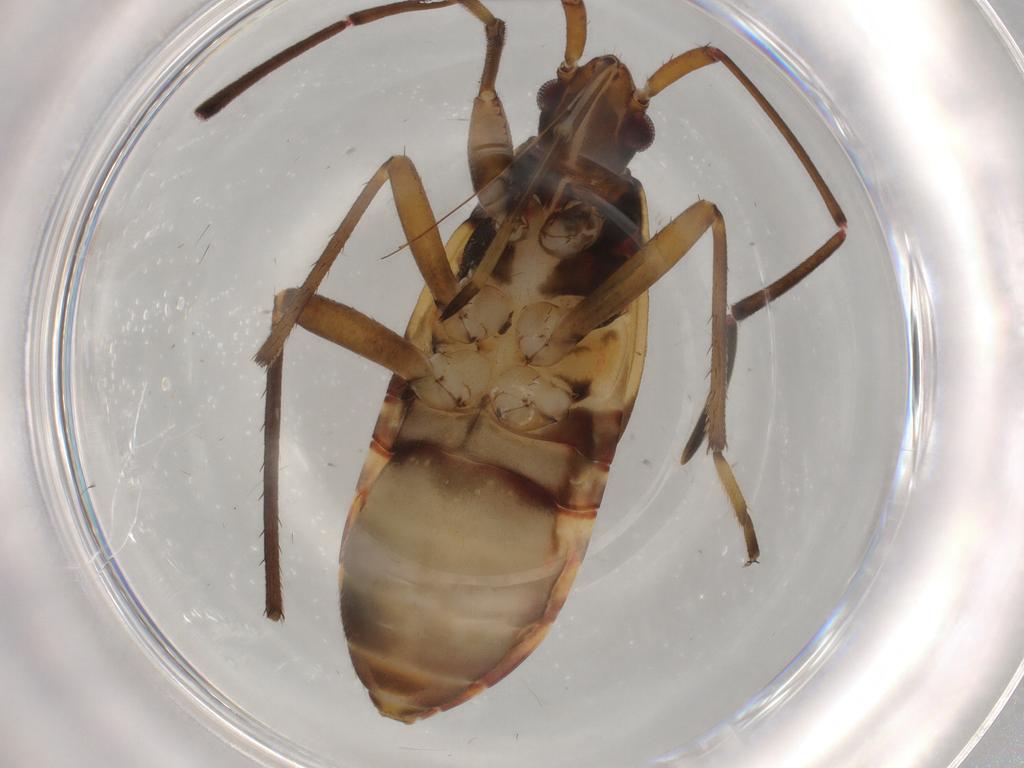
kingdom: Animalia
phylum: Arthropoda
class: Insecta
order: Hemiptera
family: Rhyparochromidae
